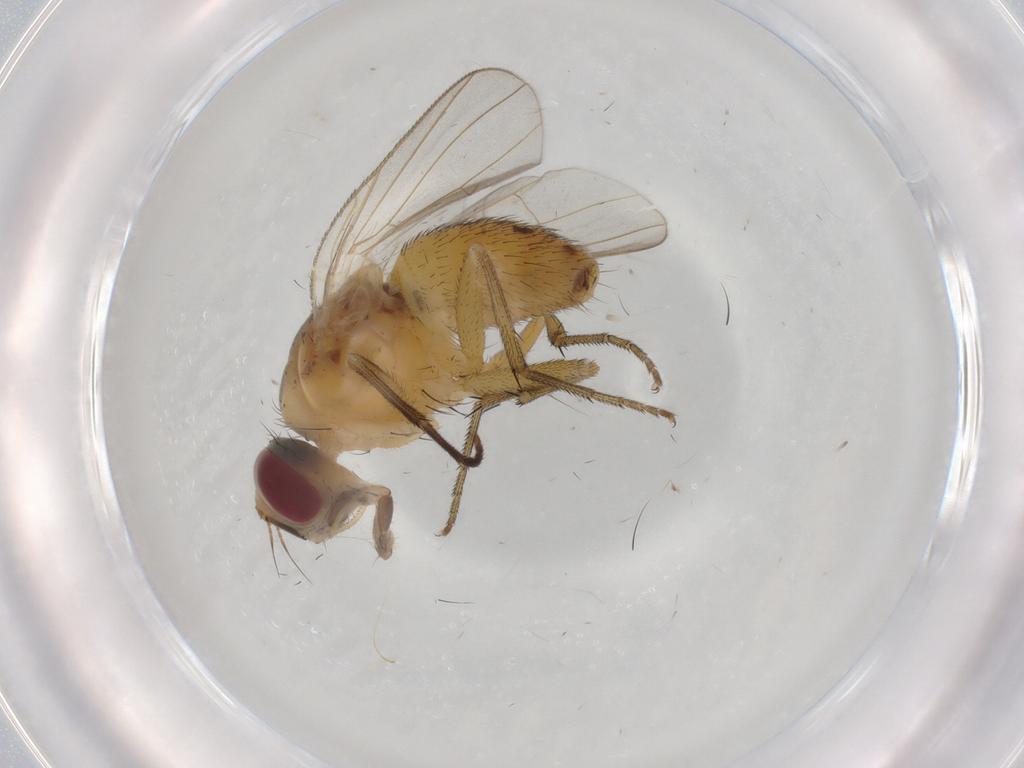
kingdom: Animalia
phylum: Arthropoda
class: Insecta
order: Diptera
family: Muscidae
